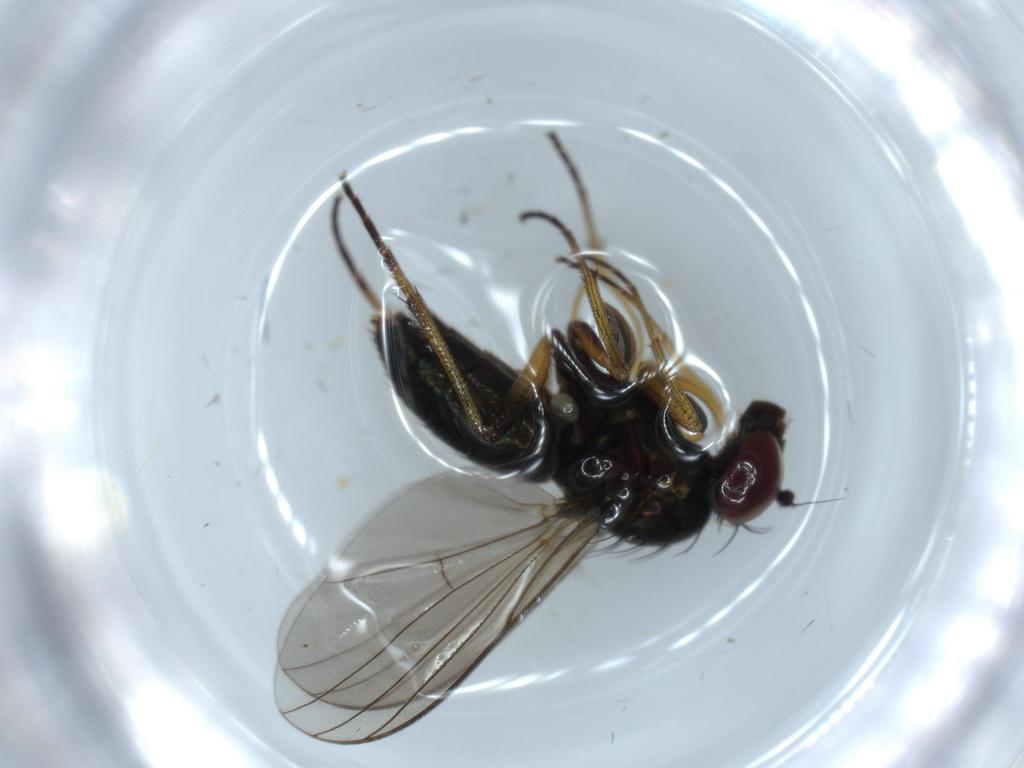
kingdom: Animalia
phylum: Arthropoda
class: Insecta
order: Diptera
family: Dolichopodidae
